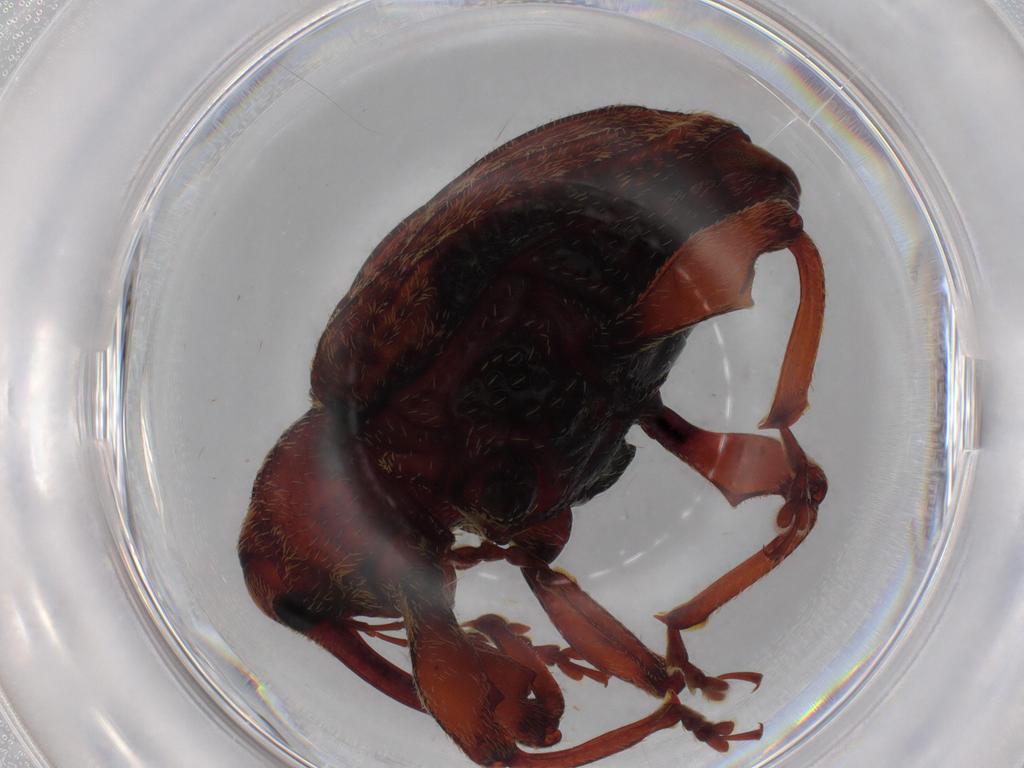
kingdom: Animalia
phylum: Arthropoda
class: Insecta
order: Coleoptera
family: Curculionidae
